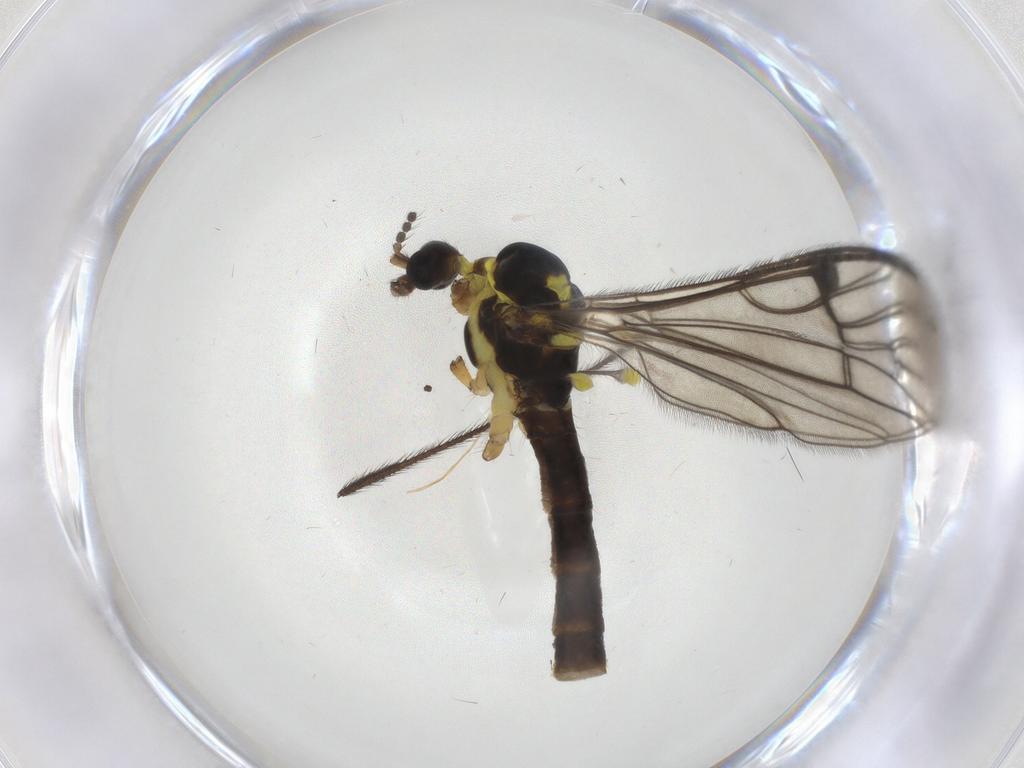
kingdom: Animalia
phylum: Arthropoda
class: Insecta
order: Diptera
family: Limoniidae
